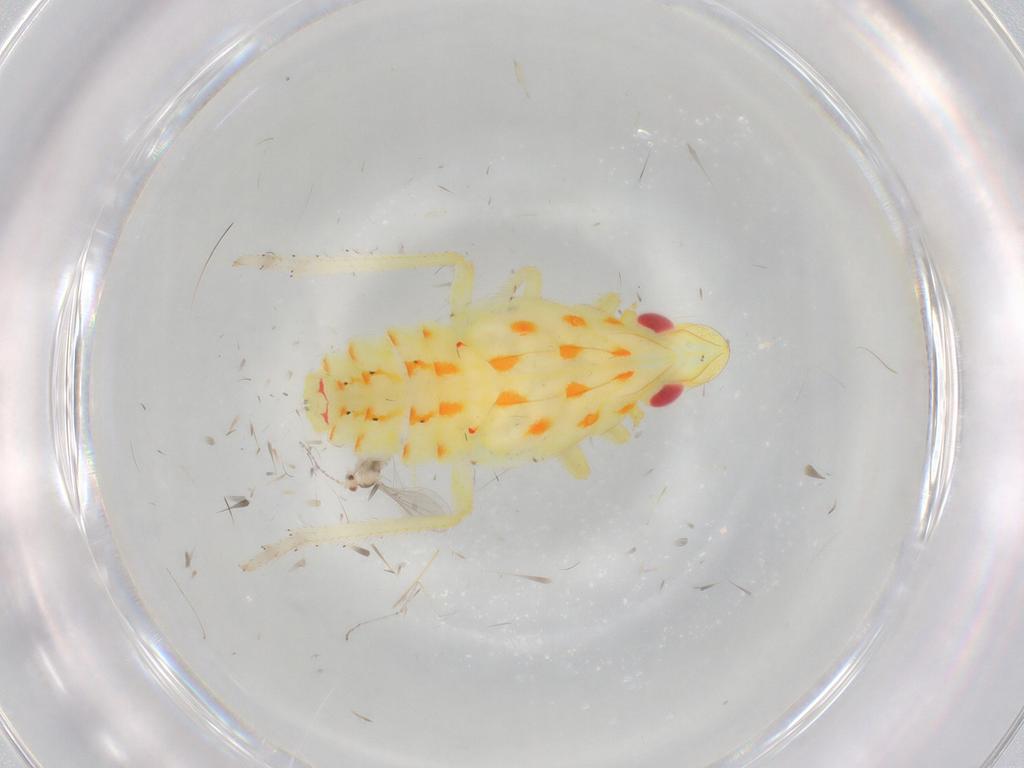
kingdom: Animalia
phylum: Arthropoda
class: Insecta
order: Hemiptera
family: Tropiduchidae
